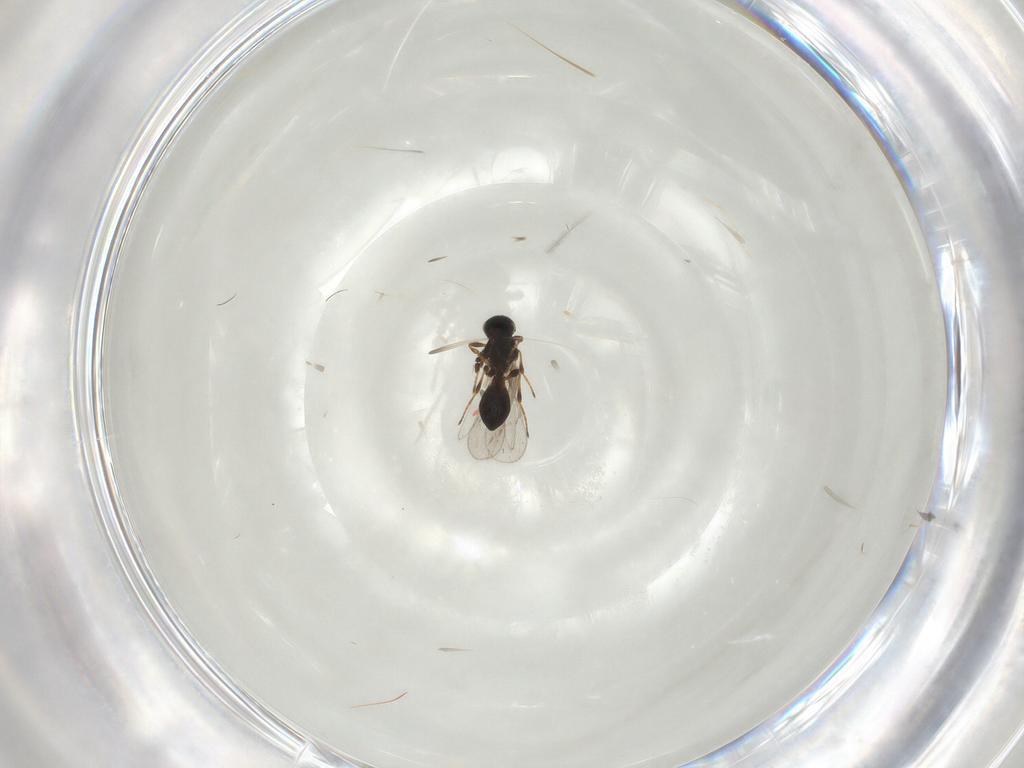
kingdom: Animalia
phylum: Arthropoda
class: Insecta
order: Hymenoptera
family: Platygastridae
